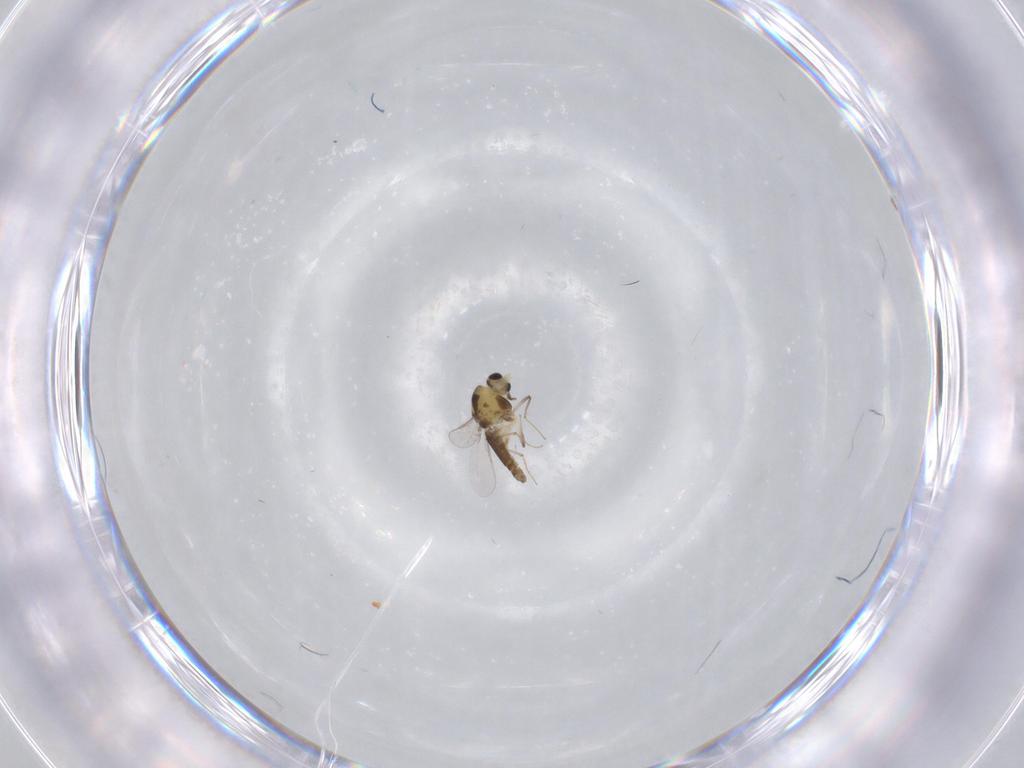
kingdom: Animalia
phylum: Arthropoda
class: Insecta
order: Diptera
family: Chironomidae
